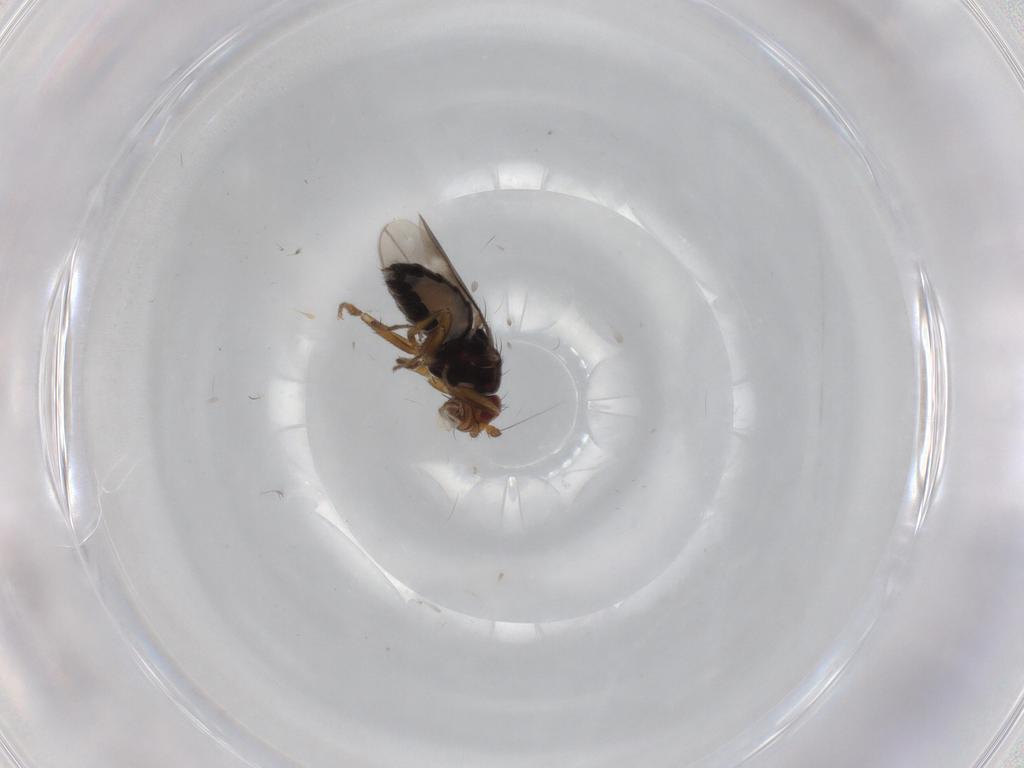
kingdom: Animalia
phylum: Arthropoda
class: Insecta
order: Diptera
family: Sphaeroceridae
